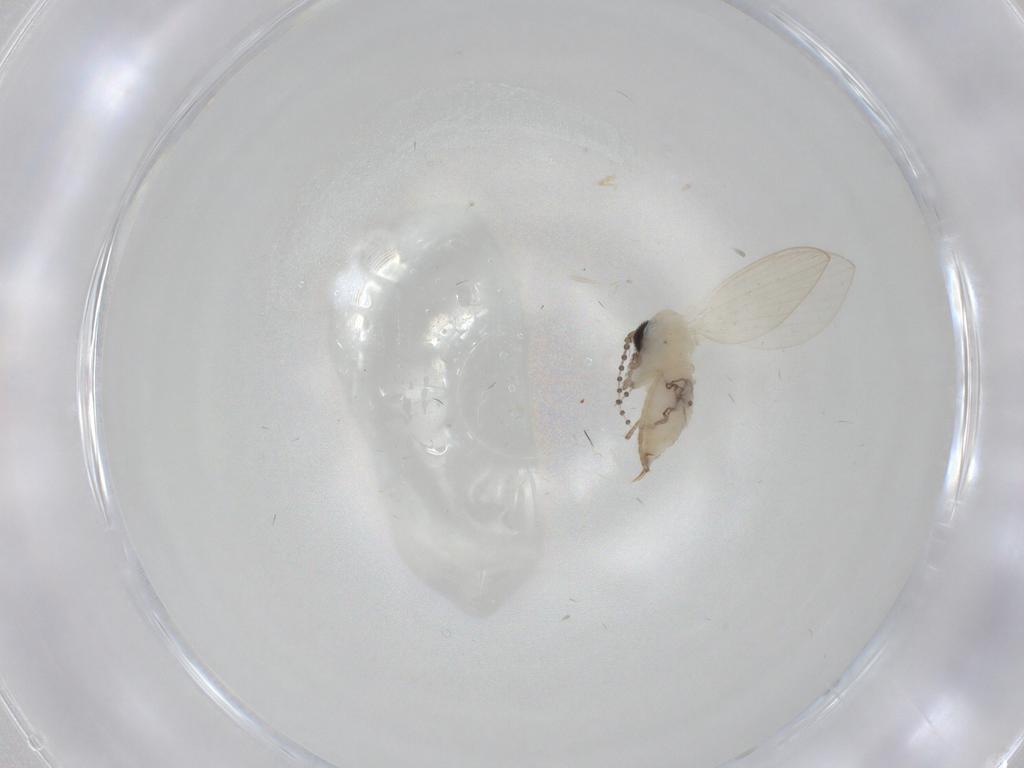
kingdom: Animalia
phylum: Arthropoda
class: Insecta
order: Diptera
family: Psychodidae
